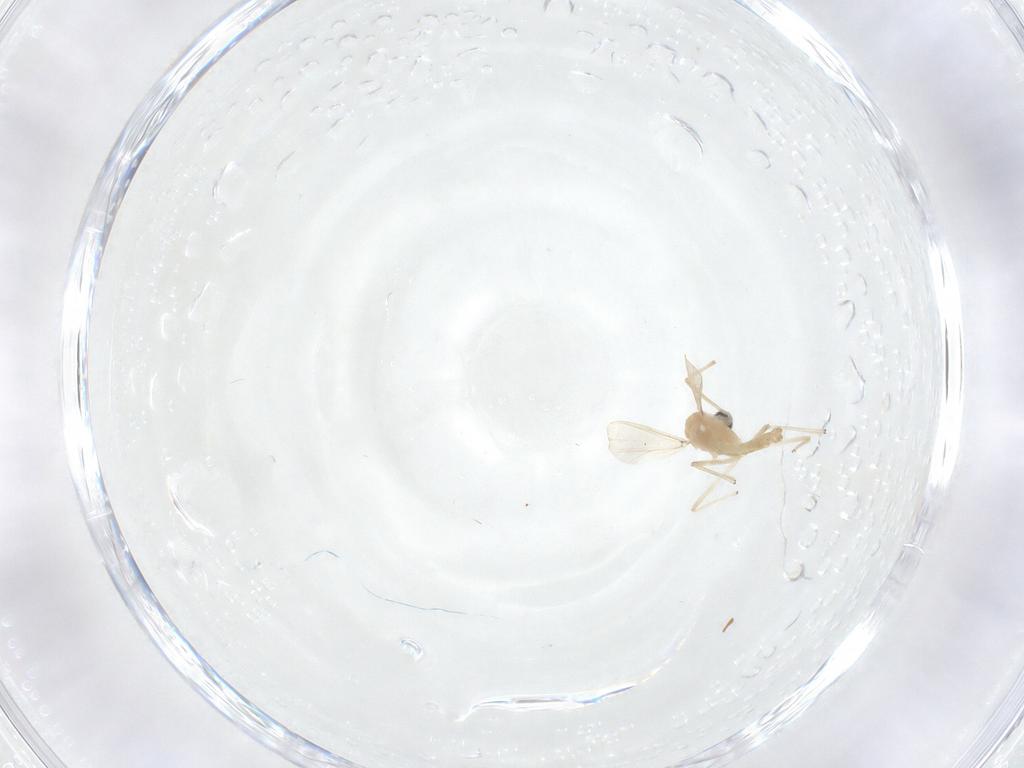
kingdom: Animalia
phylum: Arthropoda
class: Insecta
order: Diptera
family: Chironomidae
